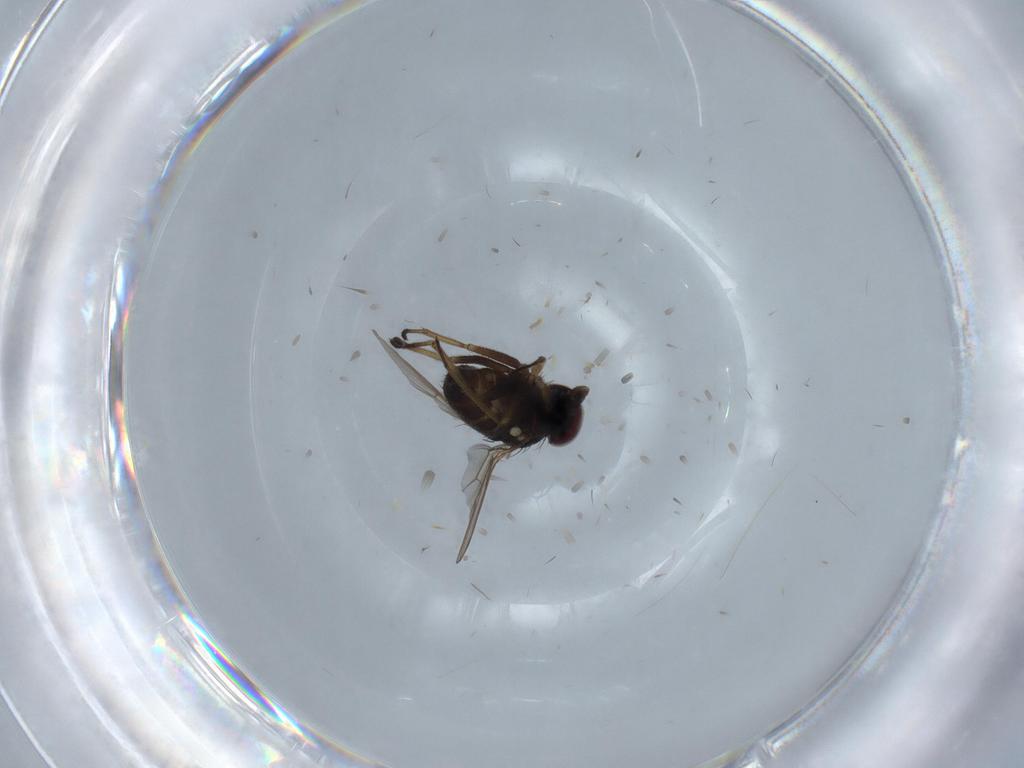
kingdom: Animalia
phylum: Arthropoda
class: Insecta
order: Diptera
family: Dolichopodidae
